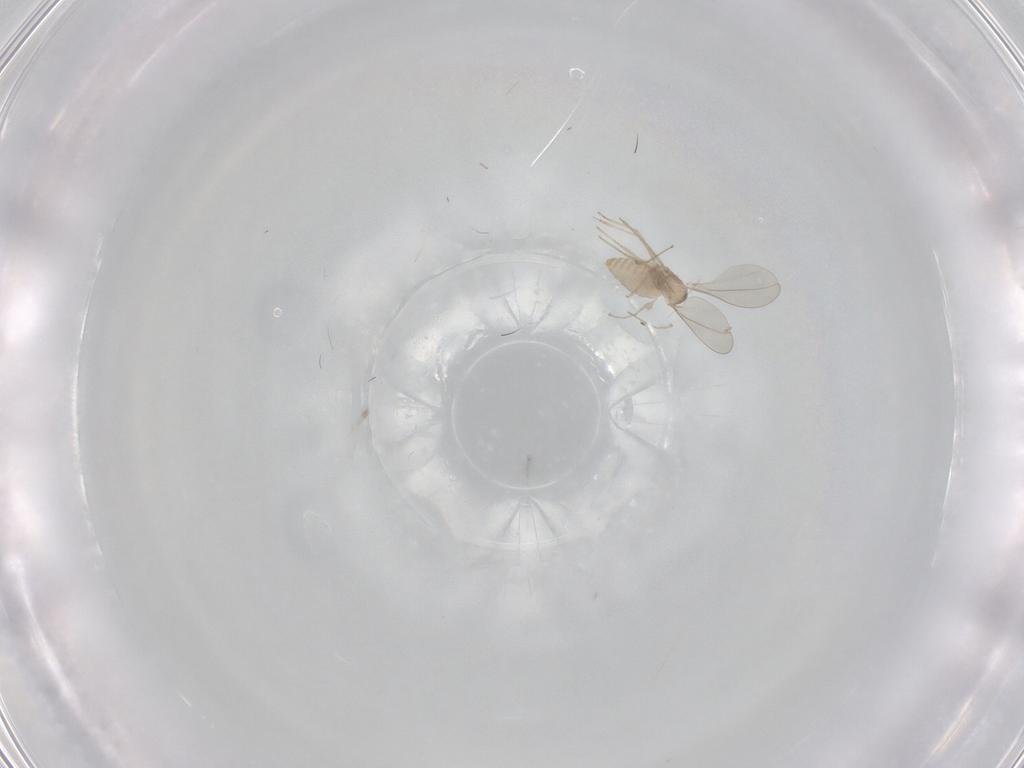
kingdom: Animalia
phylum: Arthropoda
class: Insecta
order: Diptera
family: Cecidomyiidae
